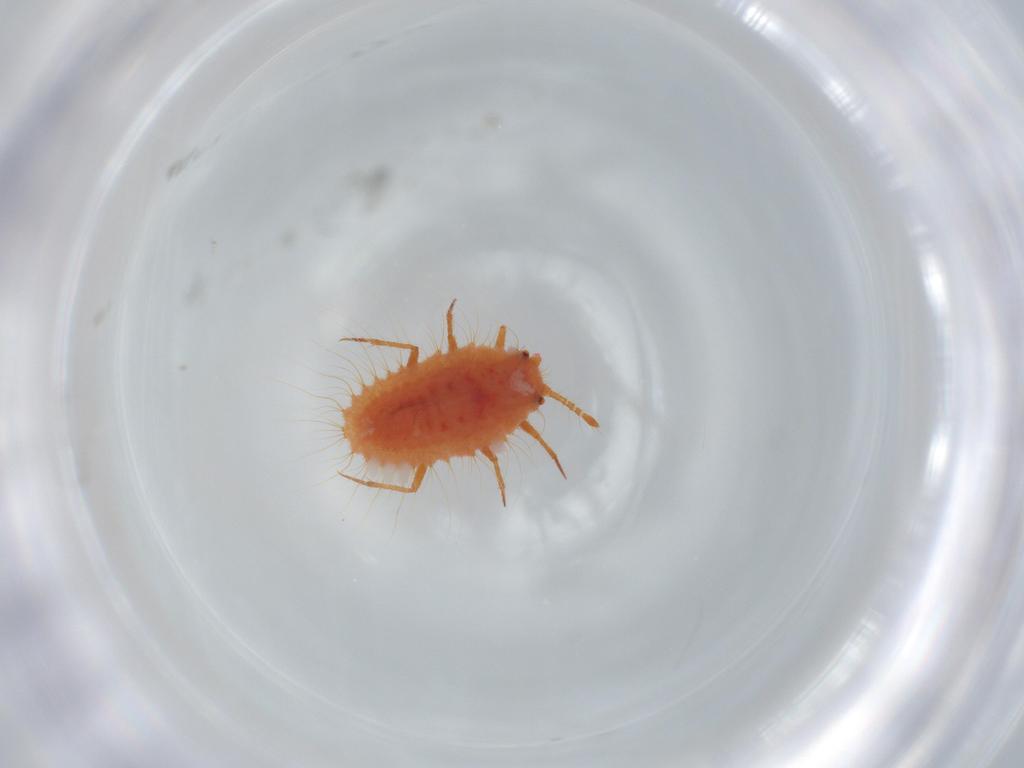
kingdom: Animalia
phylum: Arthropoda
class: Insecta
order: Hemiptera
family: Coccoidea_incertae_sedis
